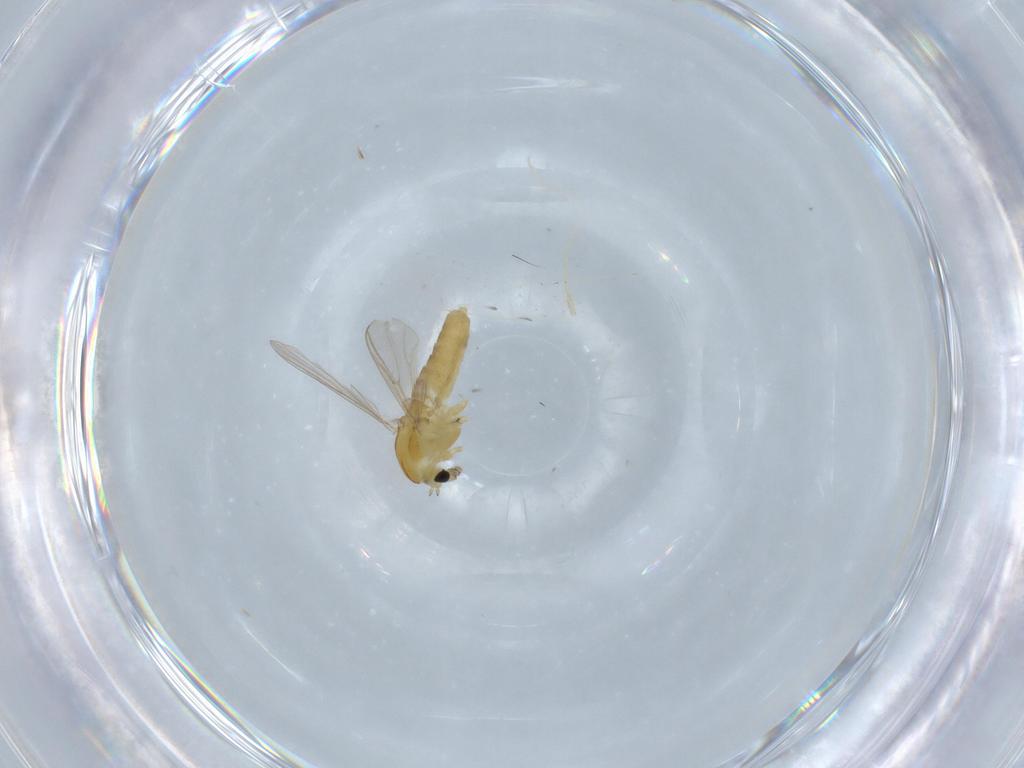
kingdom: Animalia
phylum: Arthropoda
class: Insecta
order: Diptera
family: Chironomidae
